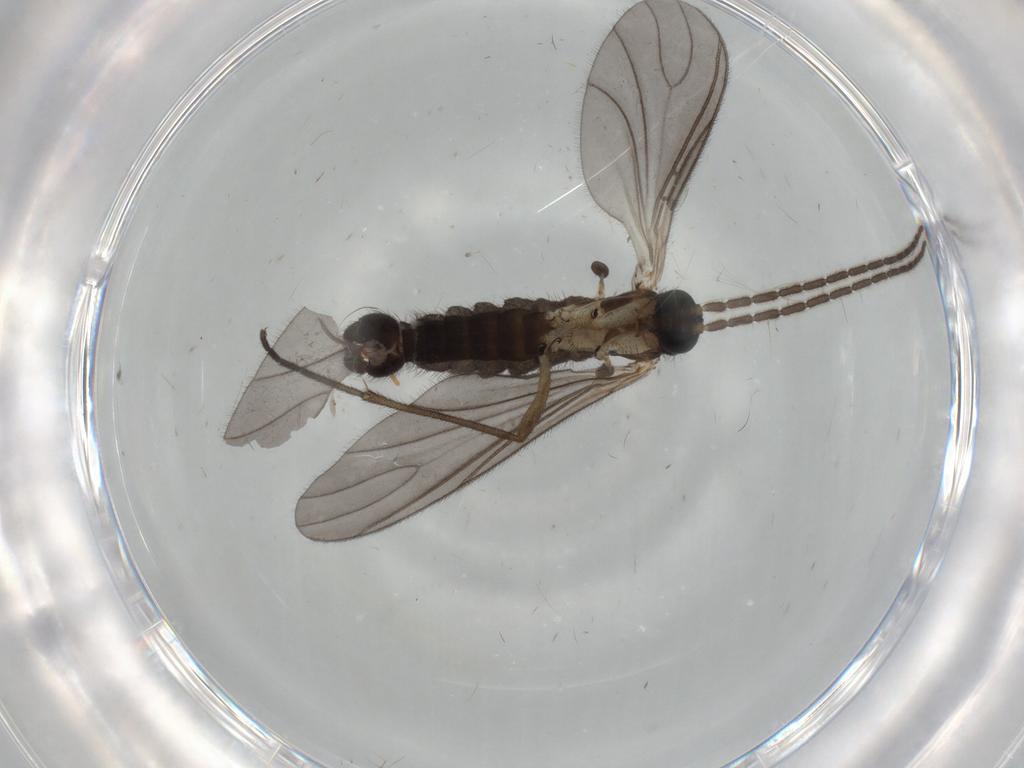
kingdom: Animalia
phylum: Arthropoda
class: Insecta
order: Diptera
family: Sciaridae
